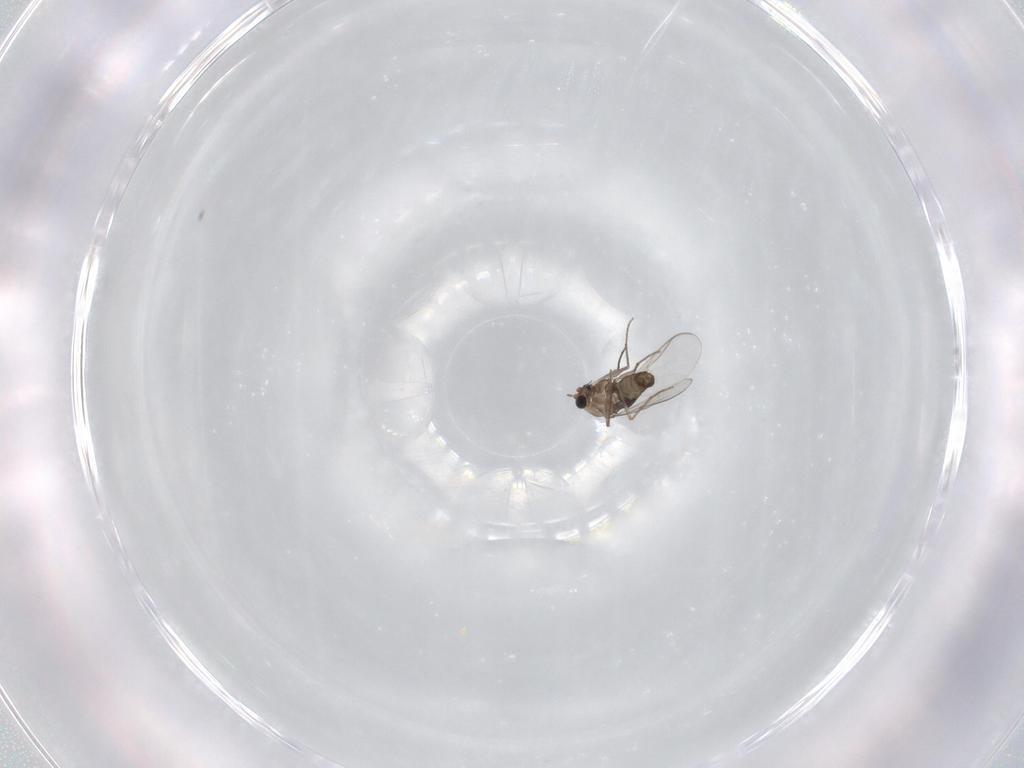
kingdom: Animalia
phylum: Arthropoda
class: Insecta
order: Diptera
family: Chironomidae
